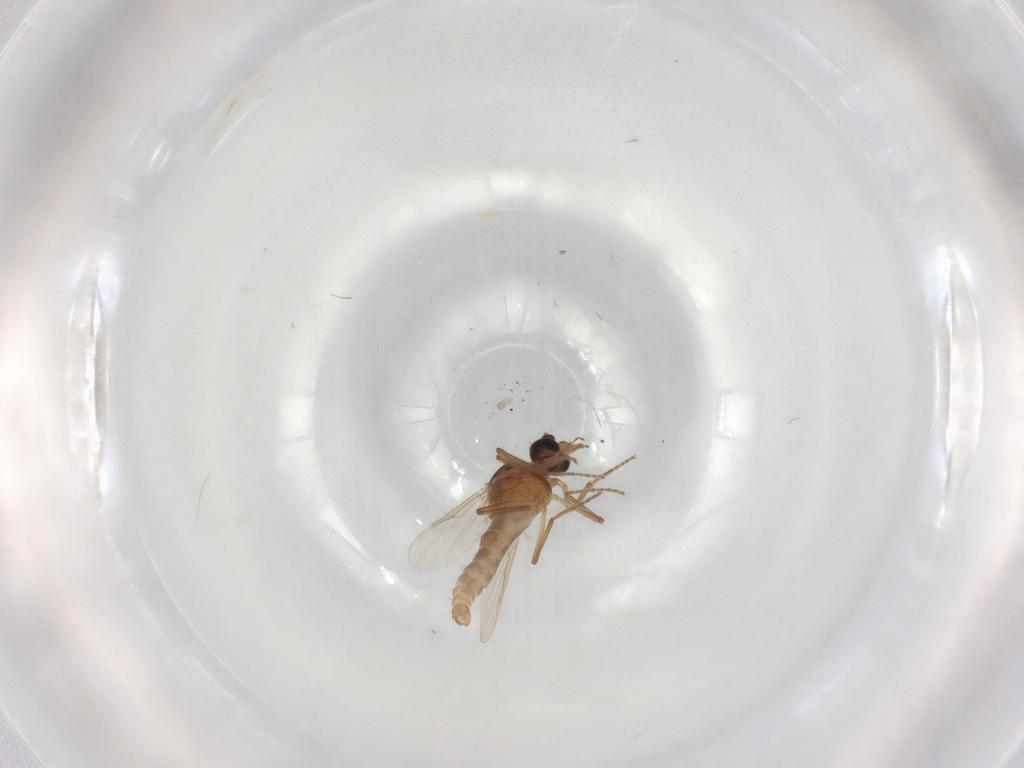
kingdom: Animalia
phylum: Arthropoda
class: Insecta
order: Diptera
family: Ceratopogonidae
